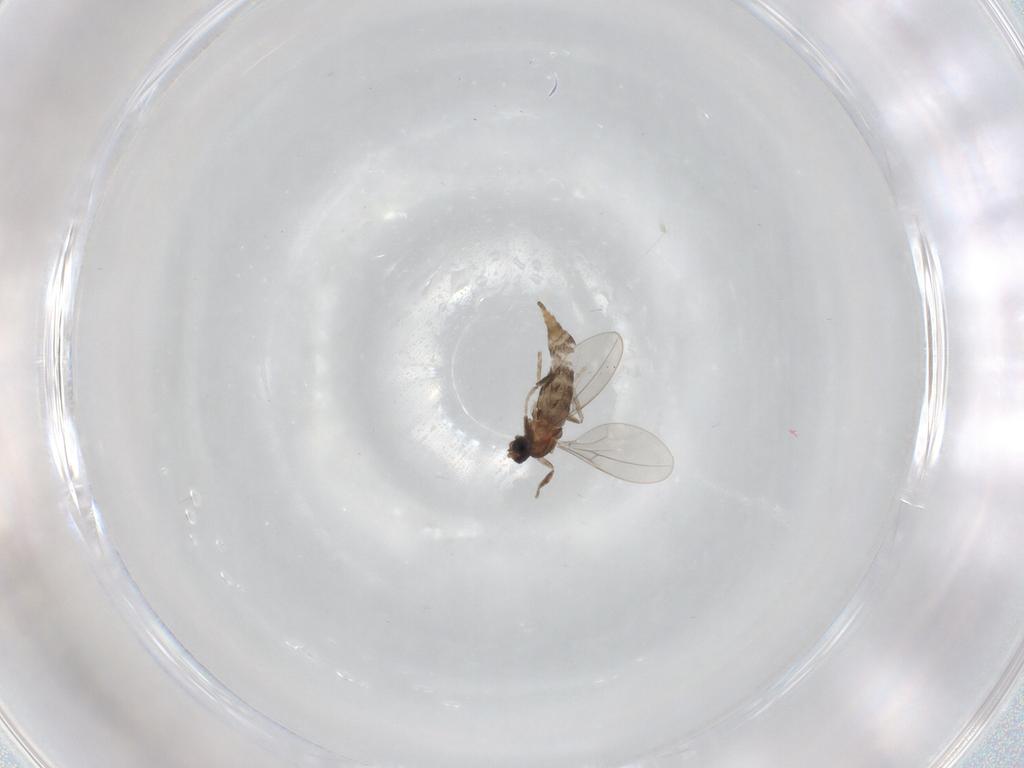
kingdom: Animalia
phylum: Arthropoda
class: Insecta
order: Diptera
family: Cecidomyiidae
